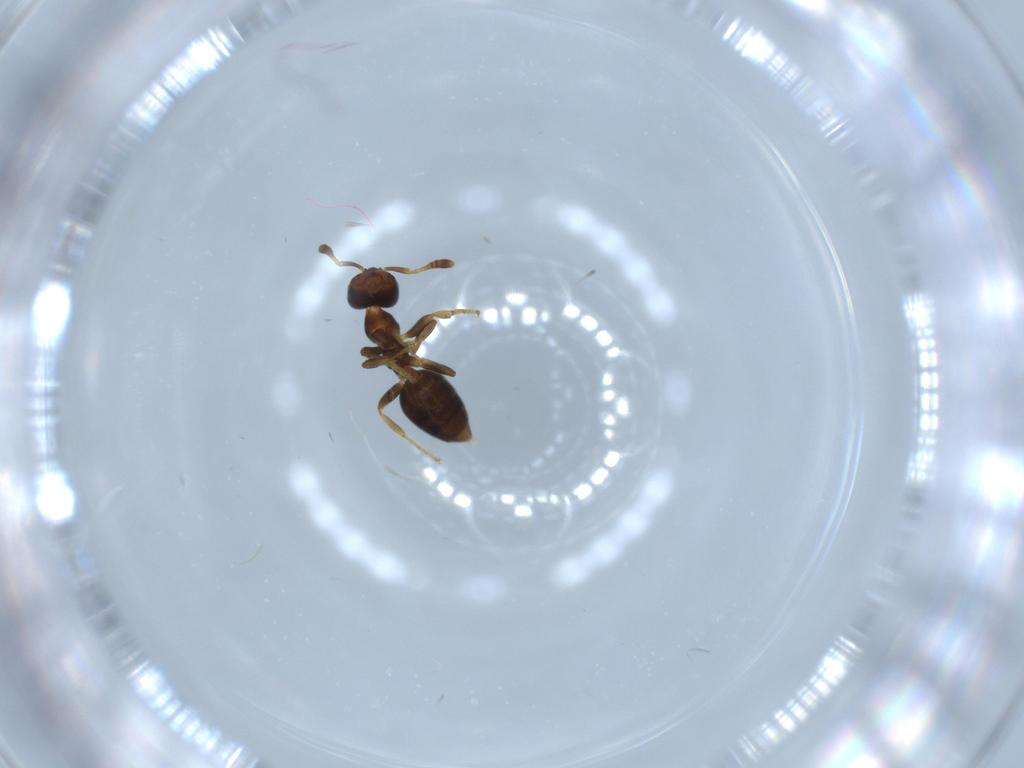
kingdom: Animalia
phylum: Arthropoda
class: Insecta
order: Hymenoptera
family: Formicidae
